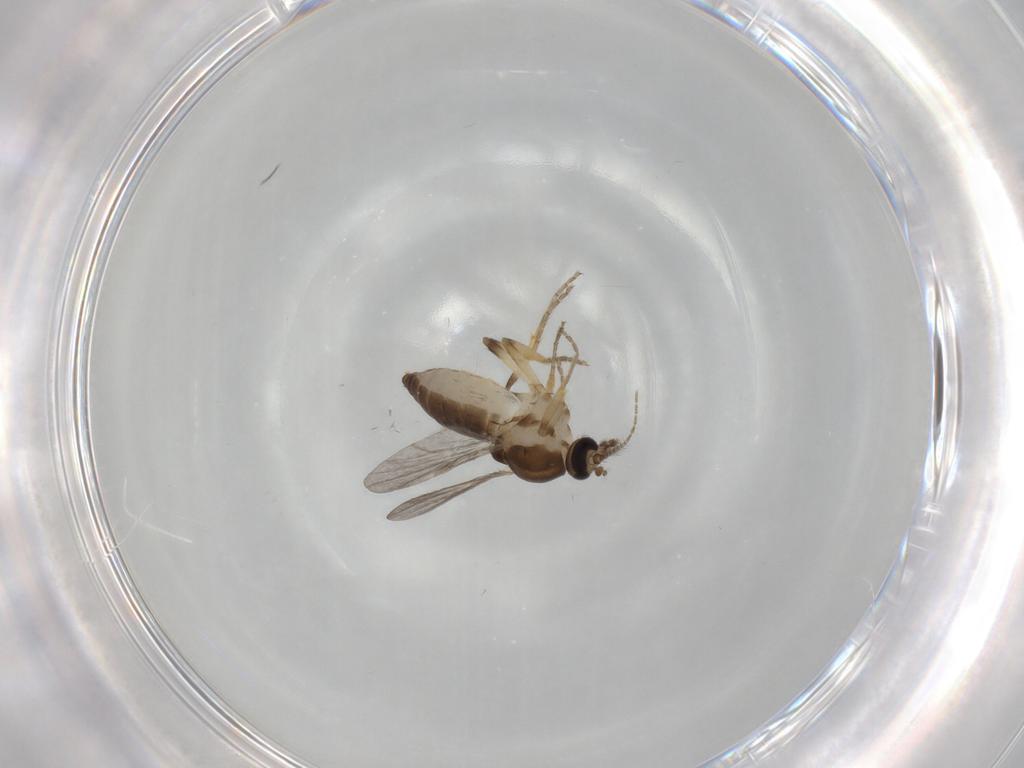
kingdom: Animalia
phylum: Arthropoda
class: Insecta
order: Diptera
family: Ceratopogonidae
